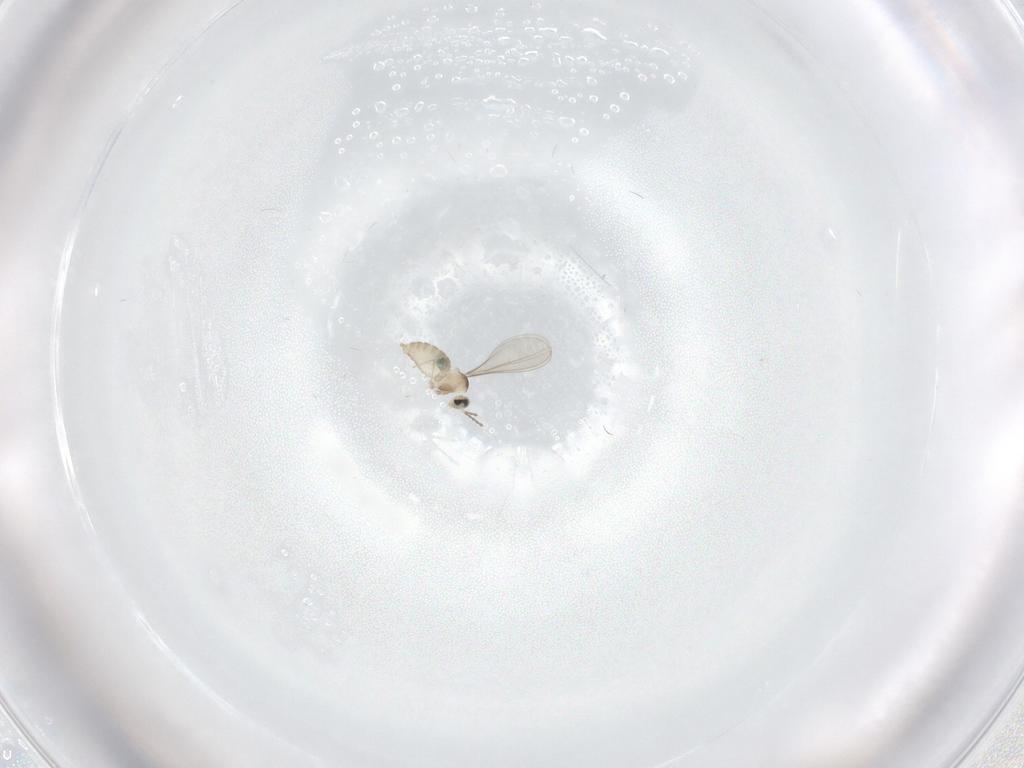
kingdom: Animalia
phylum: Arthropoda
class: Insecta
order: Diptera
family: Cecidomyiidae
